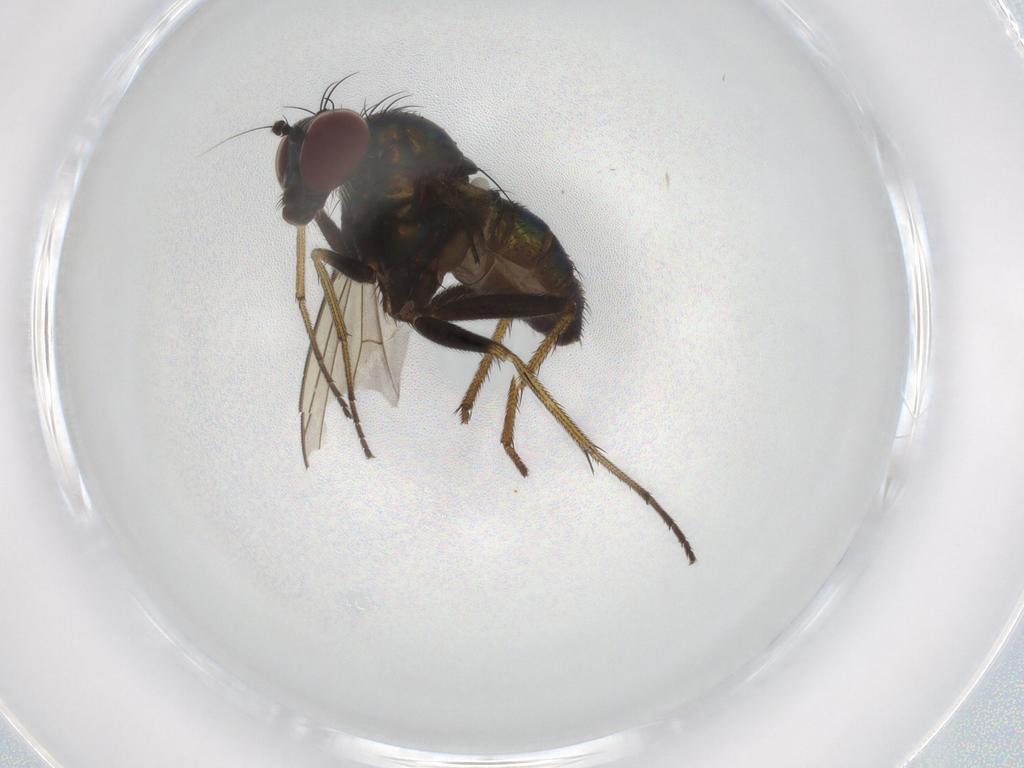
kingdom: Animalia
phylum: Arthropoda
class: Insecta
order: Diptera
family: Dolichopodidae
